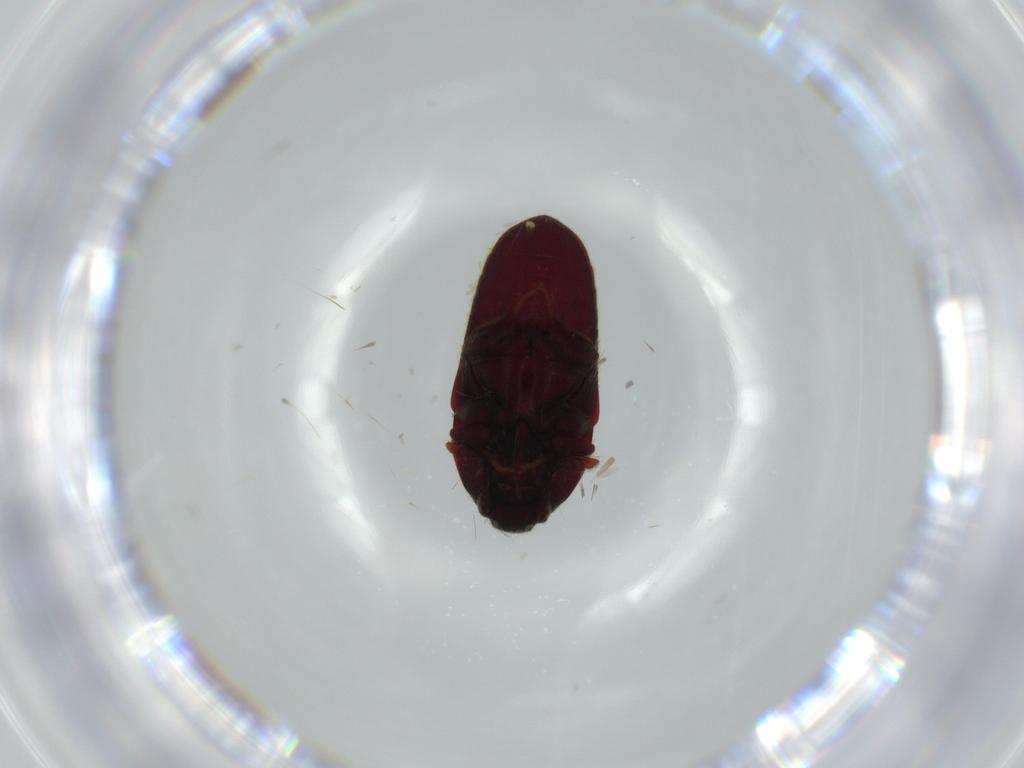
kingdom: Animalia
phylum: Arthropoda
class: Insecta
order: Coleoptera
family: Throscidae
